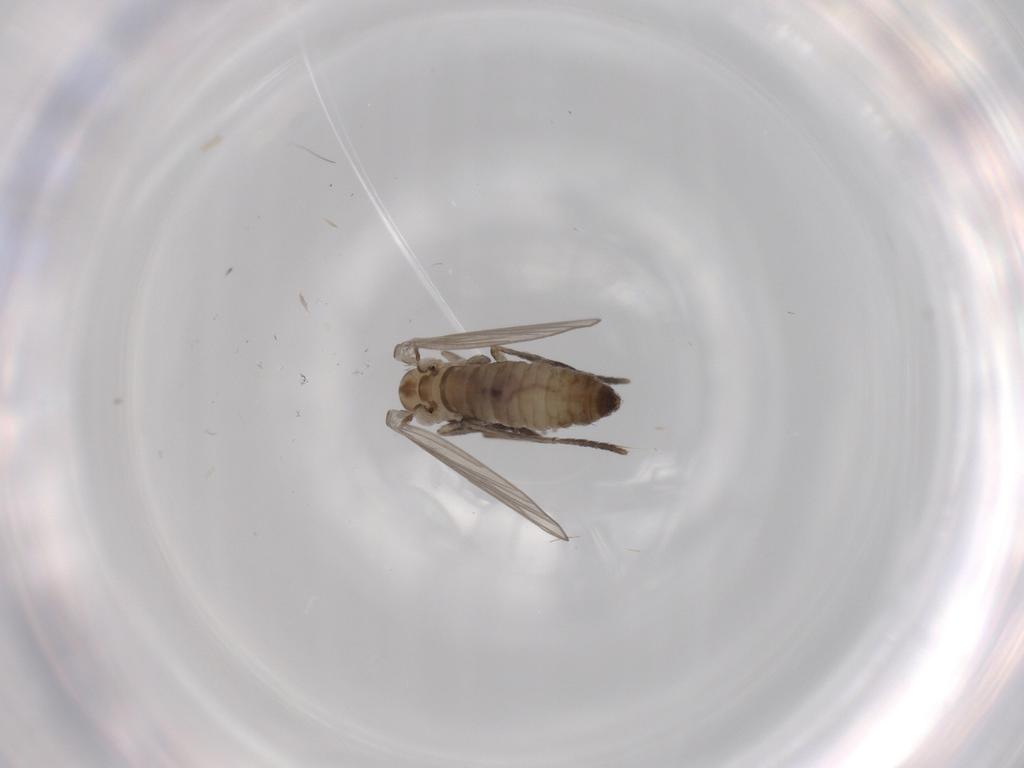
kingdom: Animalia
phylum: Arthropoda
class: Insecta
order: Diptera
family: Psychodidae
